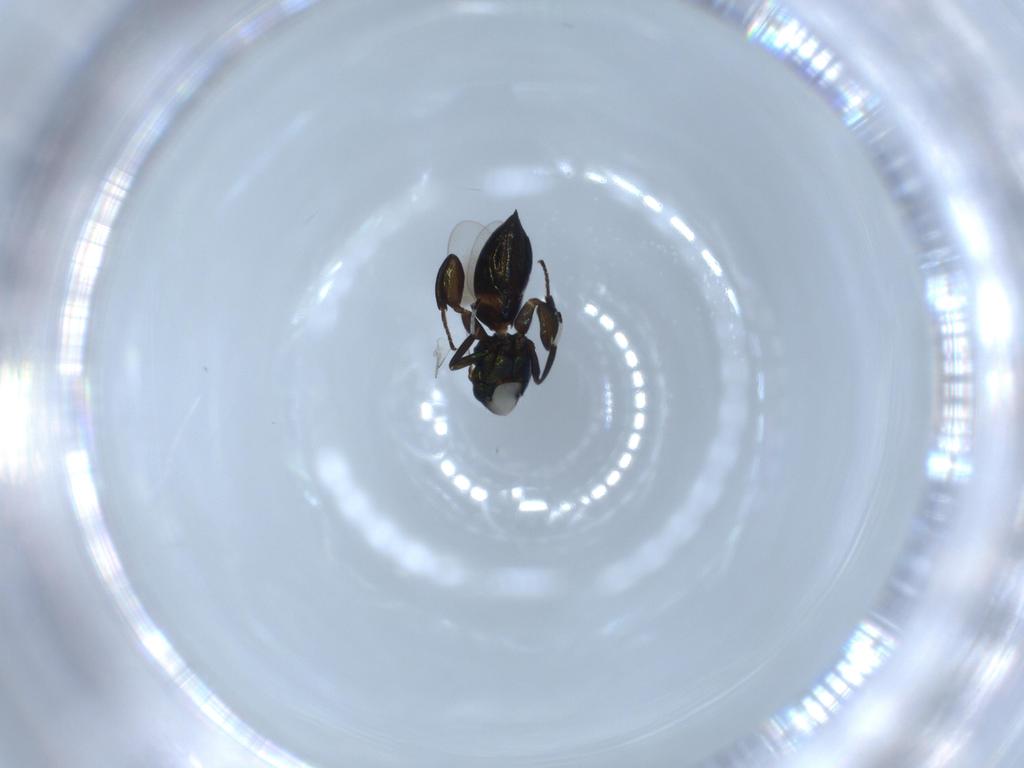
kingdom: Animalia
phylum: Arthropoda
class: Insecta
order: Hymenoptera
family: Pteromalidae
